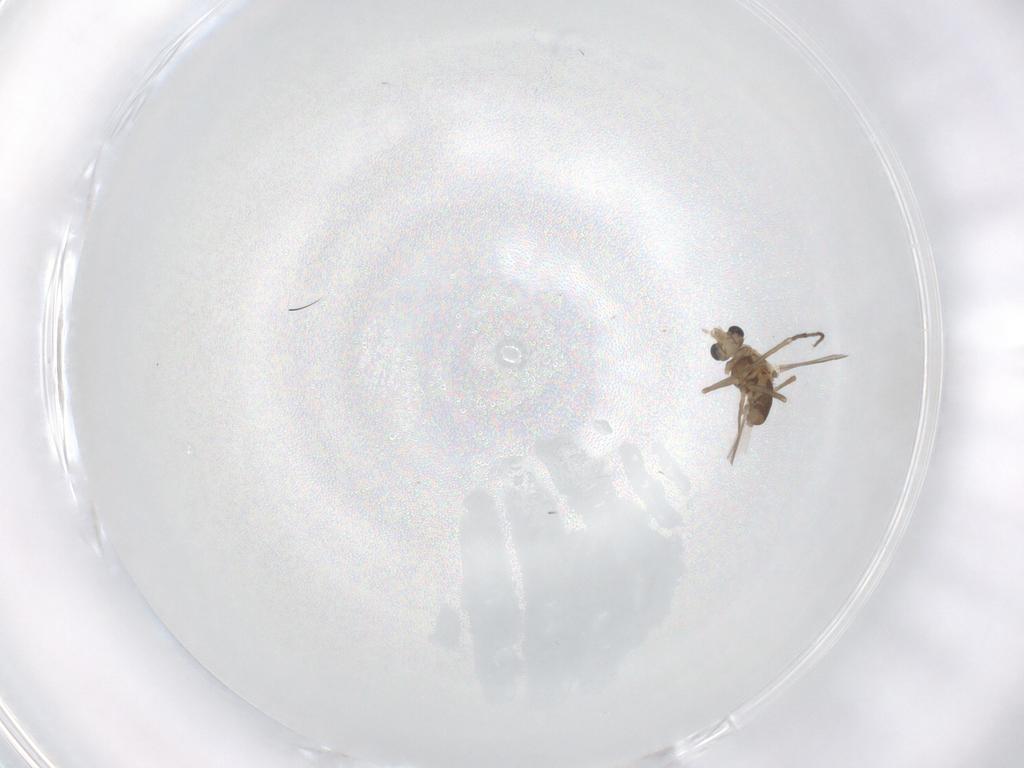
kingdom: Animalia
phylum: Arthropoda
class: Insecta
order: Diptera
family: Chironomidae
